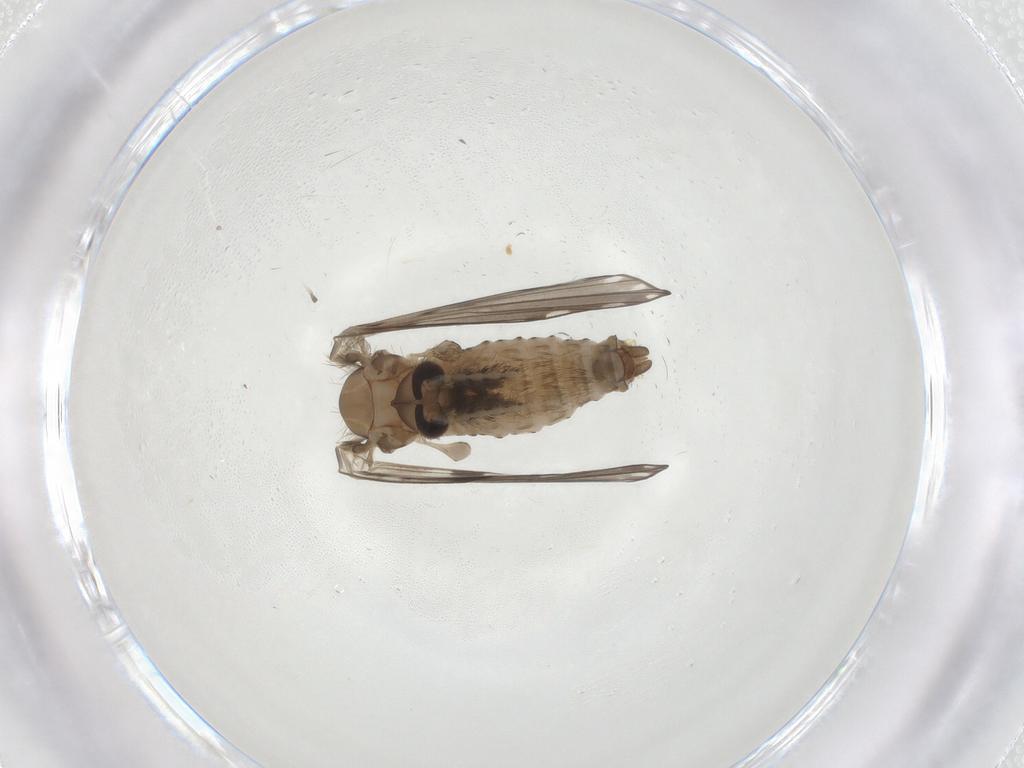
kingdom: Animalia
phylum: Arthropoda
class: Insecta
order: Diptera
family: Psychodidae
